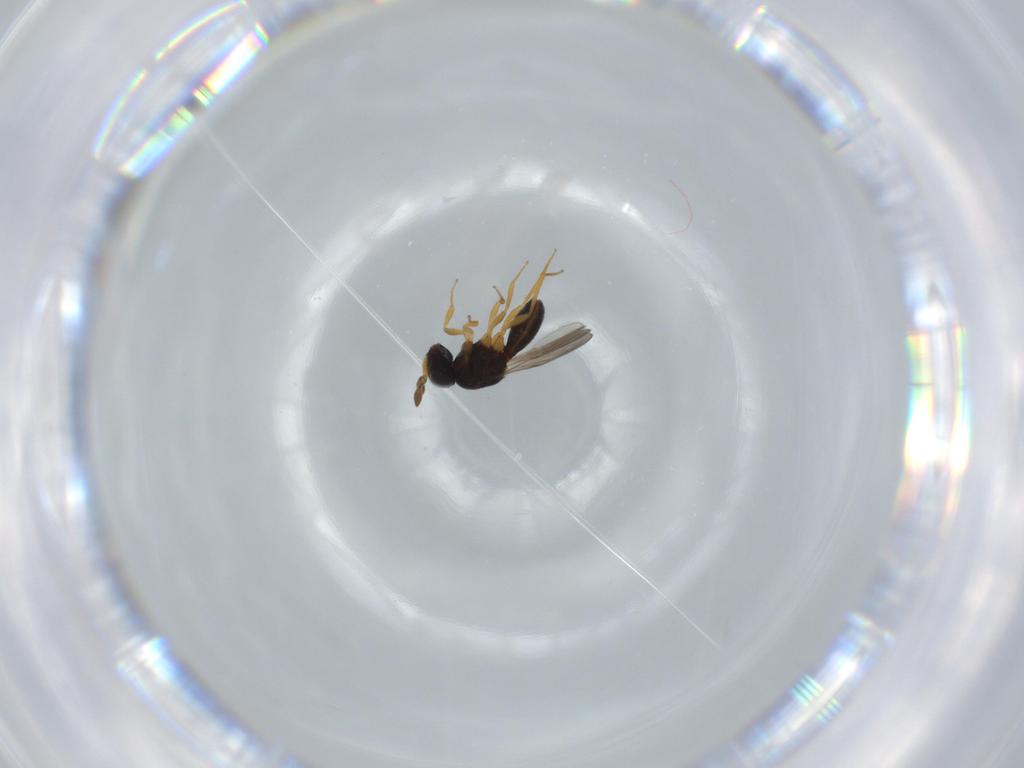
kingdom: Animalia
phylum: Arthropoda
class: Insecta
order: Hymenoptera
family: Scelionidae
